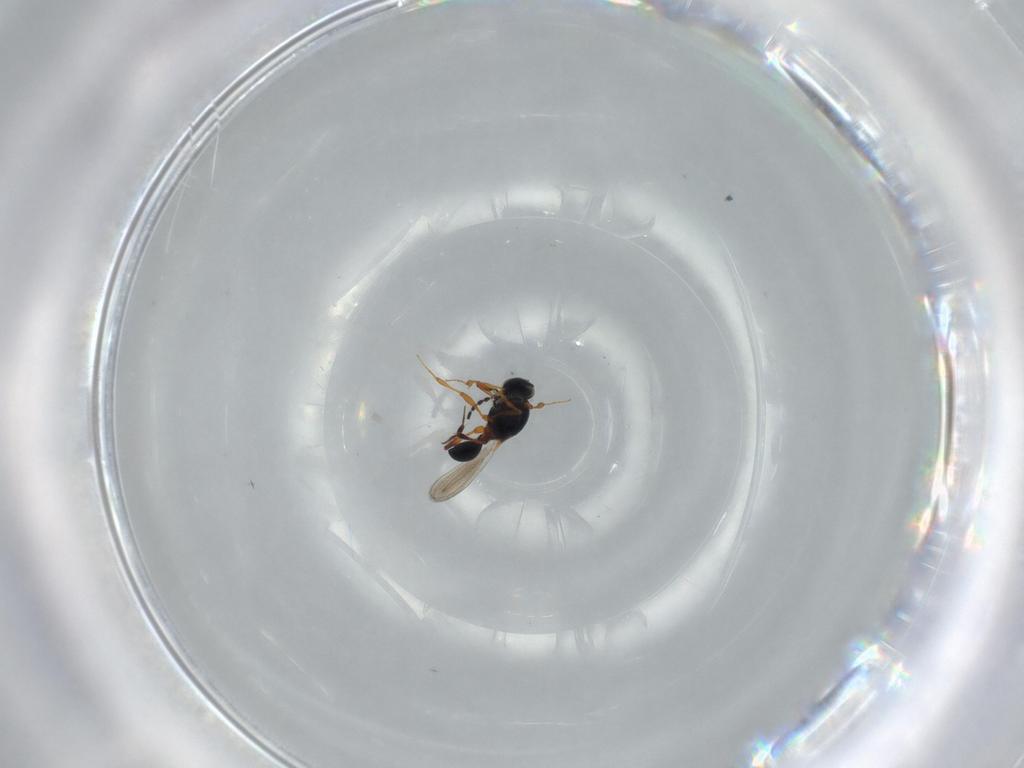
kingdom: Animalia
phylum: Arthropoda
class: Insecta
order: Hymenoptera
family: Platygastridae
